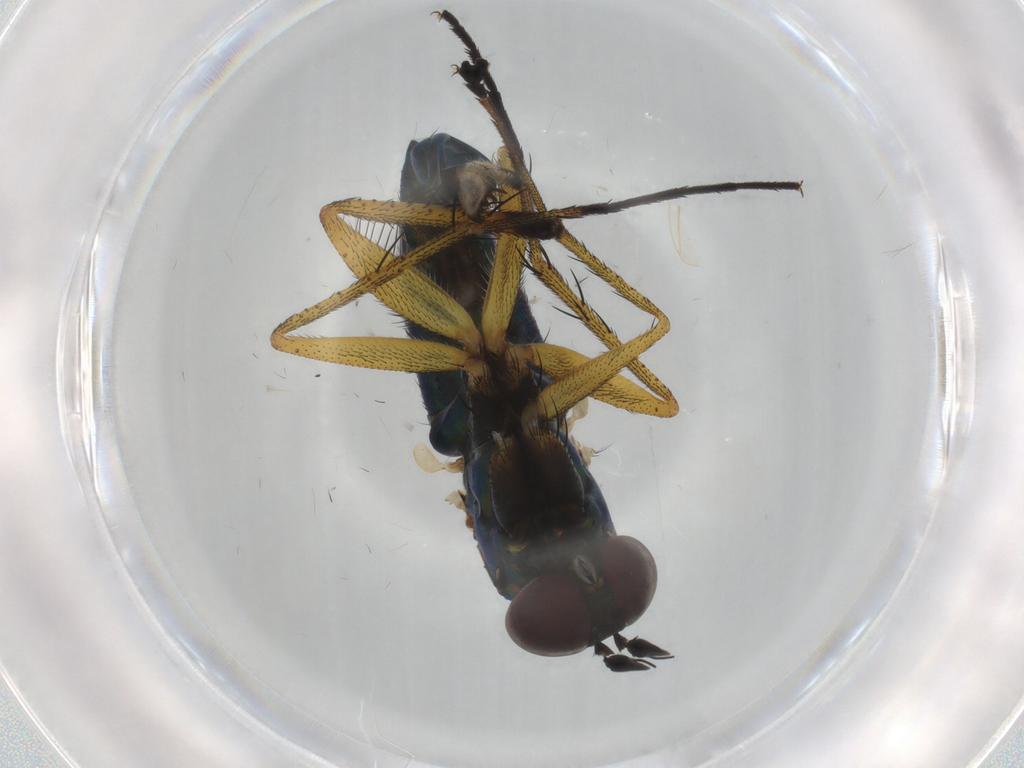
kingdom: Animalia
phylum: Arthropoda
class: Insecta
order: Diptera
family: Dolichopodidae
